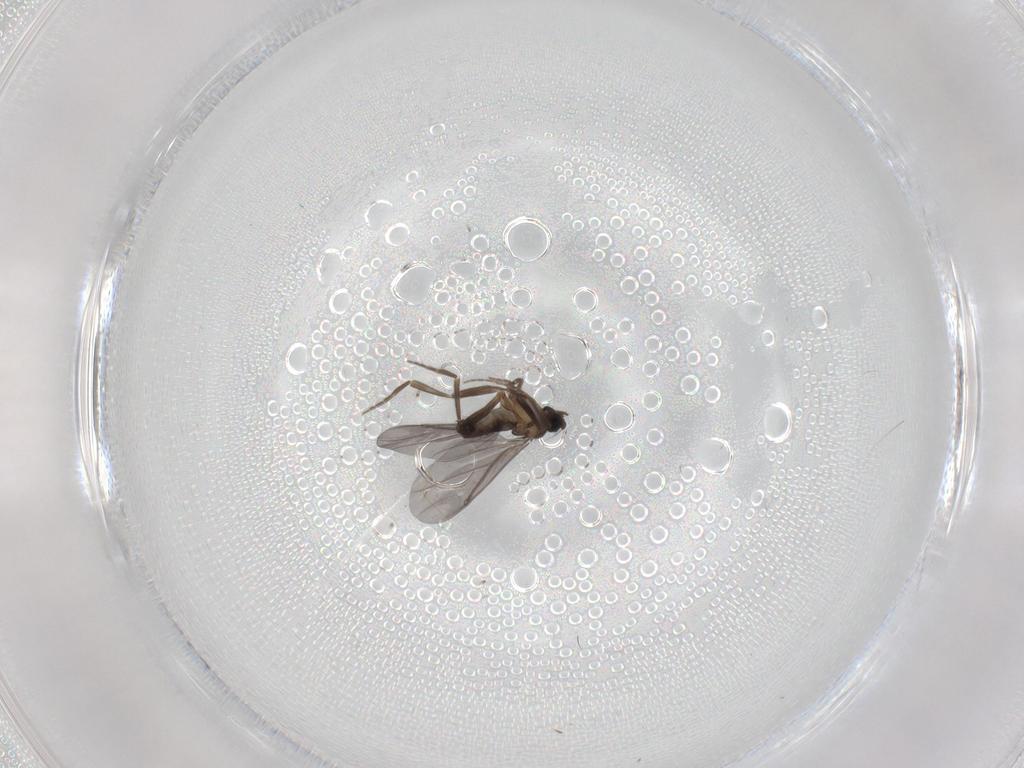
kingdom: Animalia
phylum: Arthropoda
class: Insecta
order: Diptera
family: Phoridae
